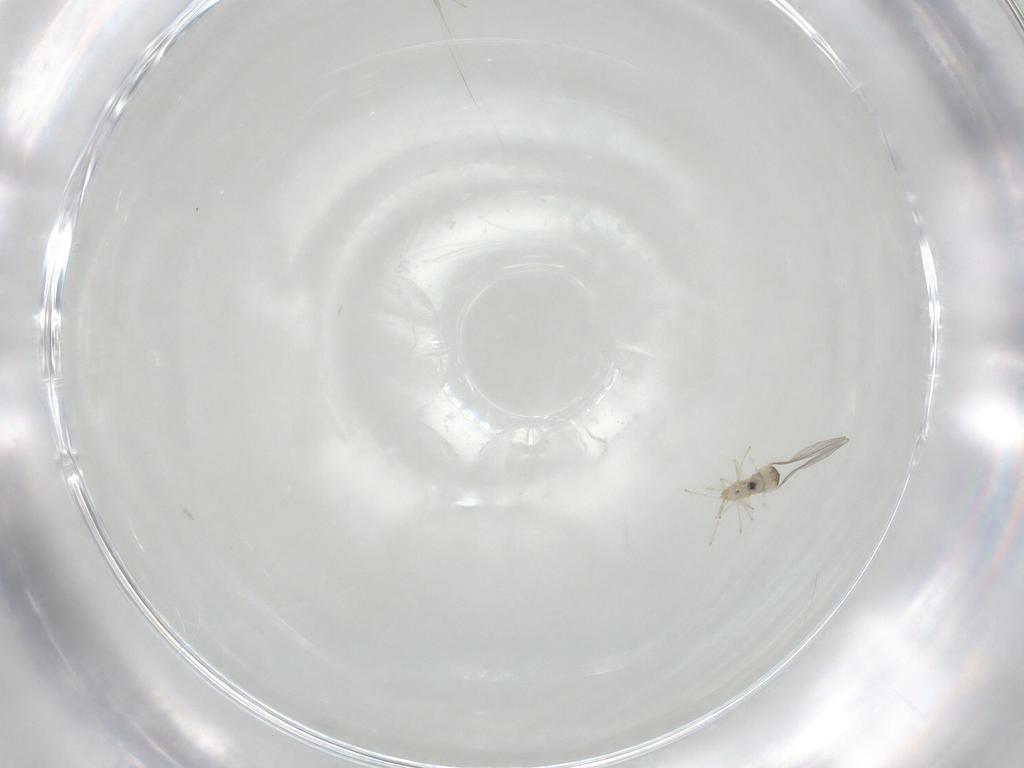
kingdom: Animalia
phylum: Arthropoda
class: Insecta
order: Diptera
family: Cecidomyiidae
